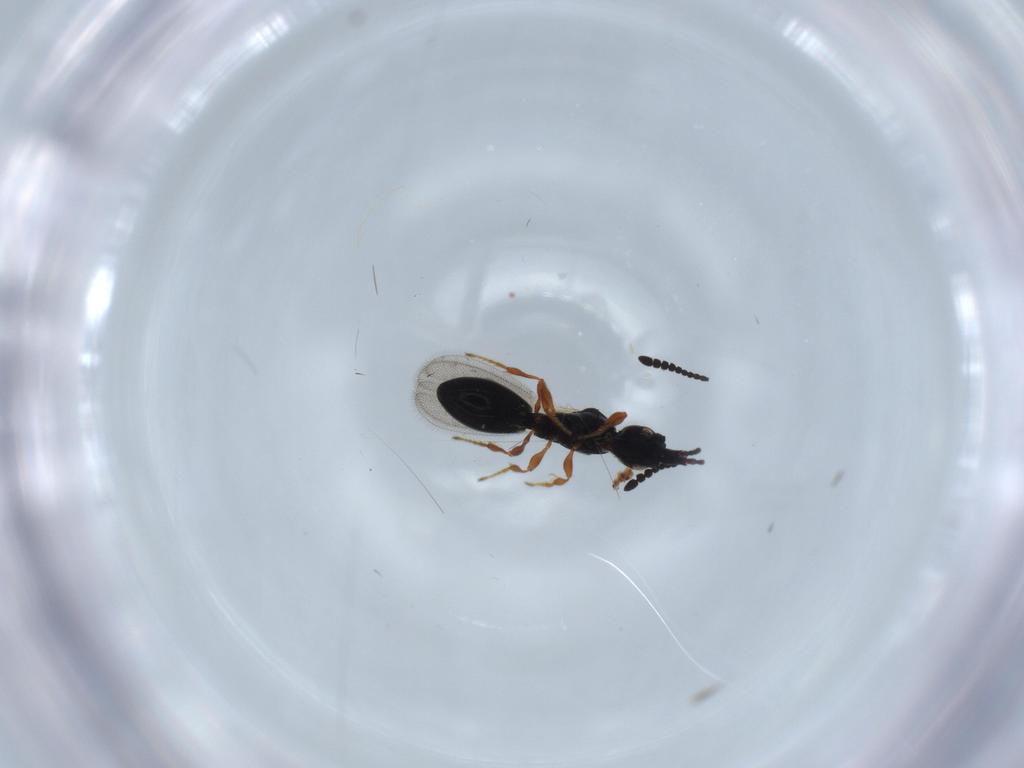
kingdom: Animalia
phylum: Arthropoda
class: Insecta
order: Hymenoptera
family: Diapriidae
